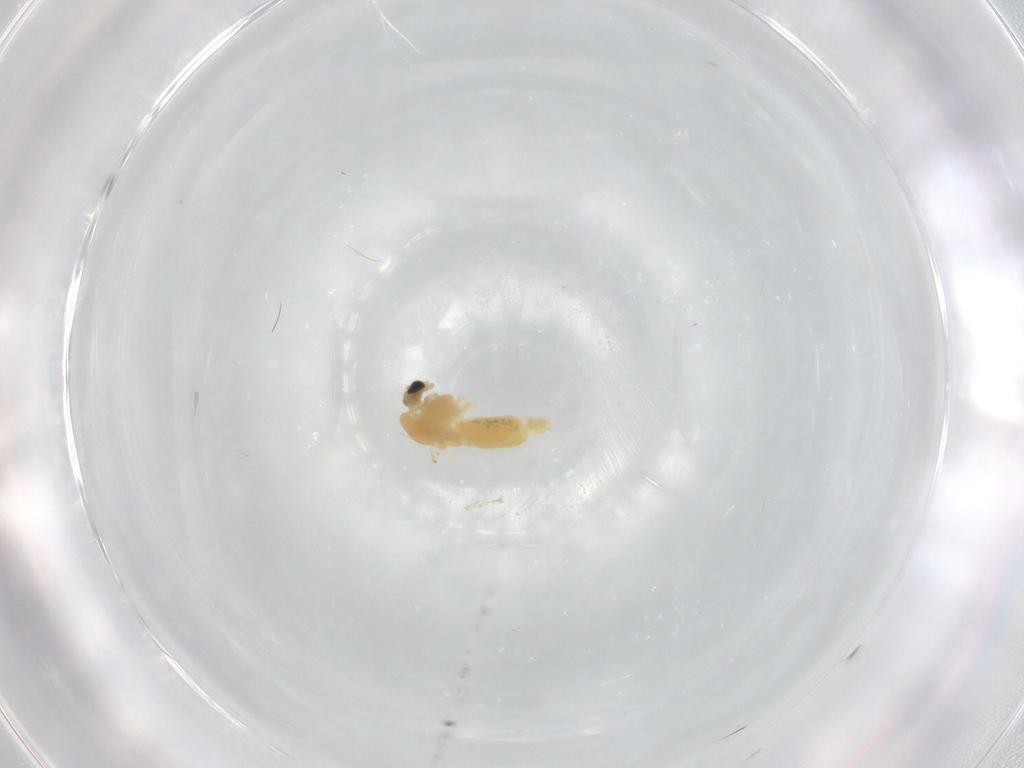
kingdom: Animalia
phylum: Arthropoda
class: Insecta
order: Diptera
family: Chironomidae
